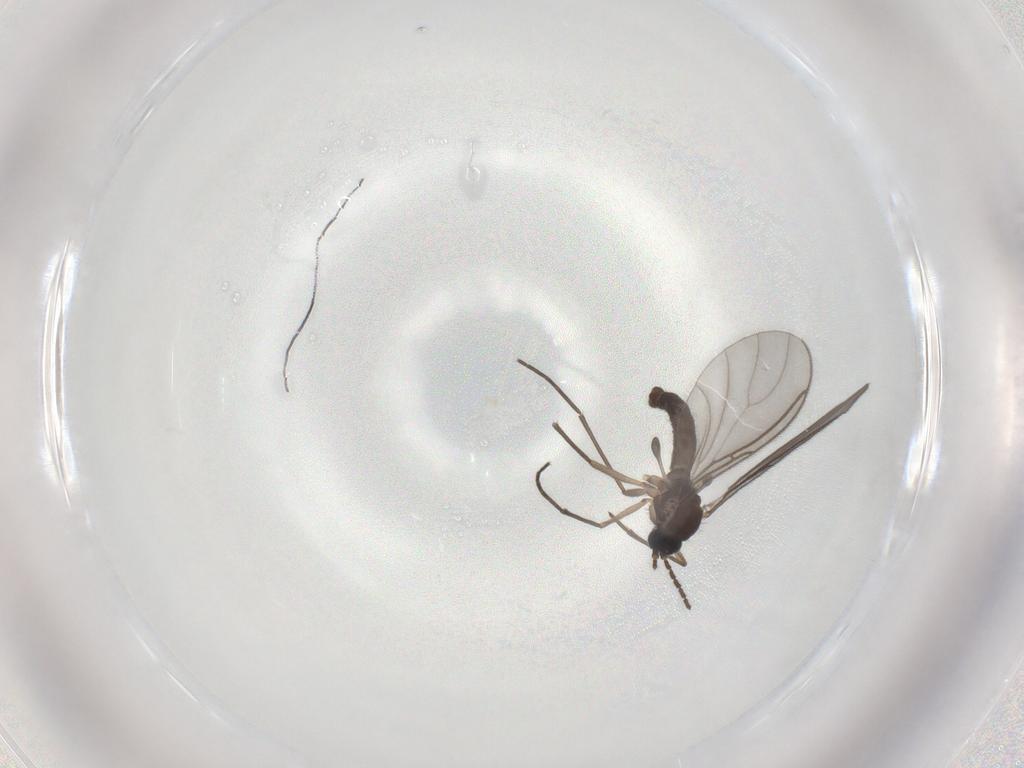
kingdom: Animalia
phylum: Arthropoda
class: Insecta
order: Diptera
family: Sciaridae
